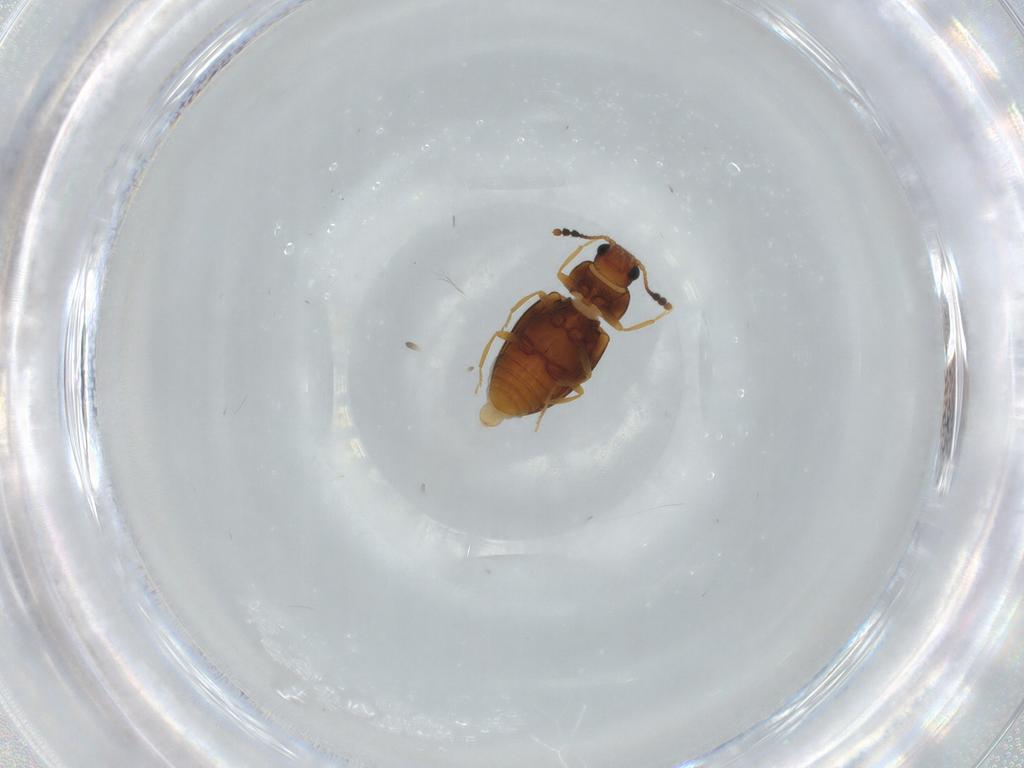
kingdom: Animalia
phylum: Arthropoda
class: Insecta
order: Coleoptera
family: Erotylidae
